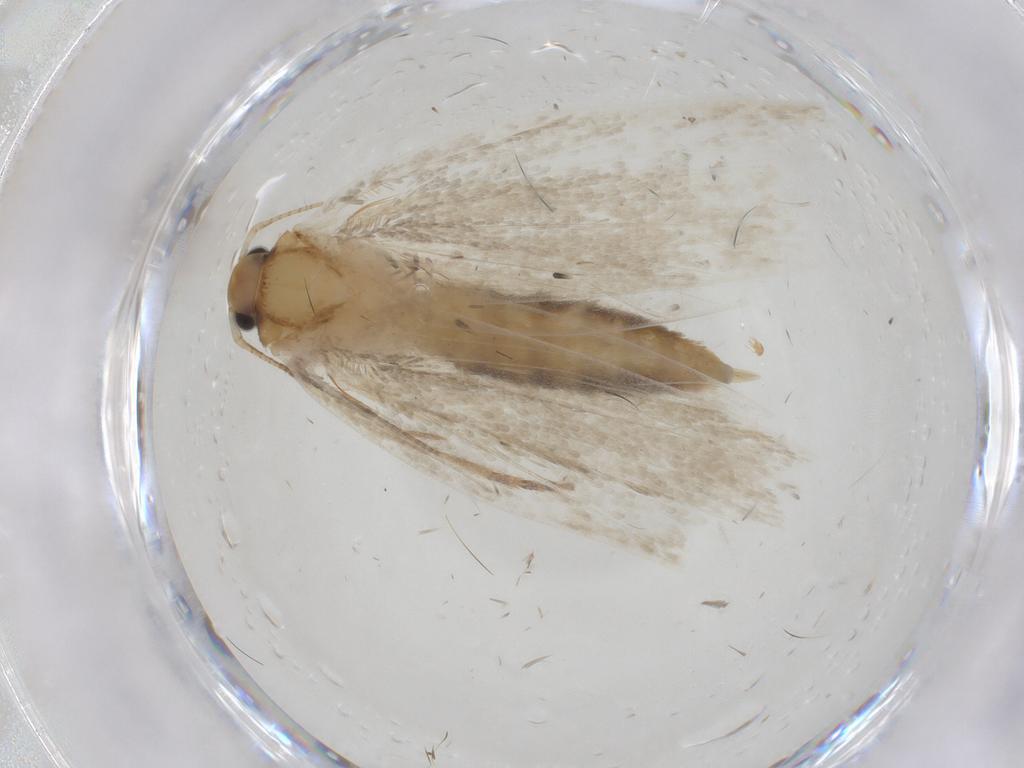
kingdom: Animalia
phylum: Arthropoda
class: Insecta
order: Lepidoptera
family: Oecophoridae
